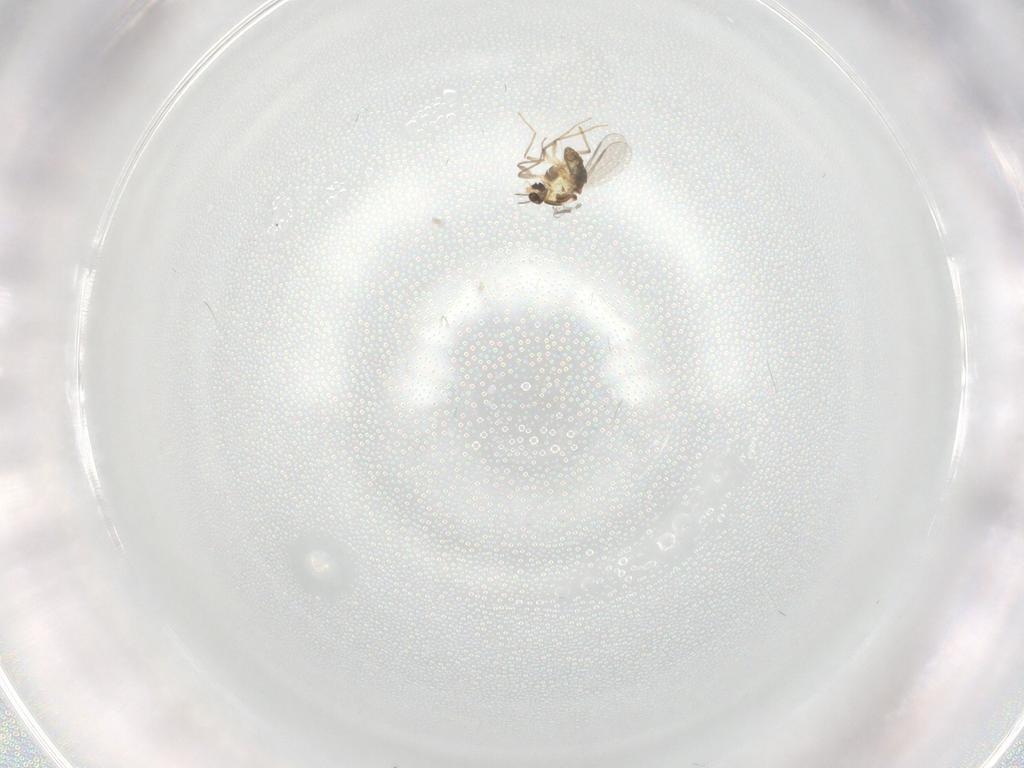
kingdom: Animalia
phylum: Arthropoda
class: Insecta
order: Diptera
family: Chironomidae
